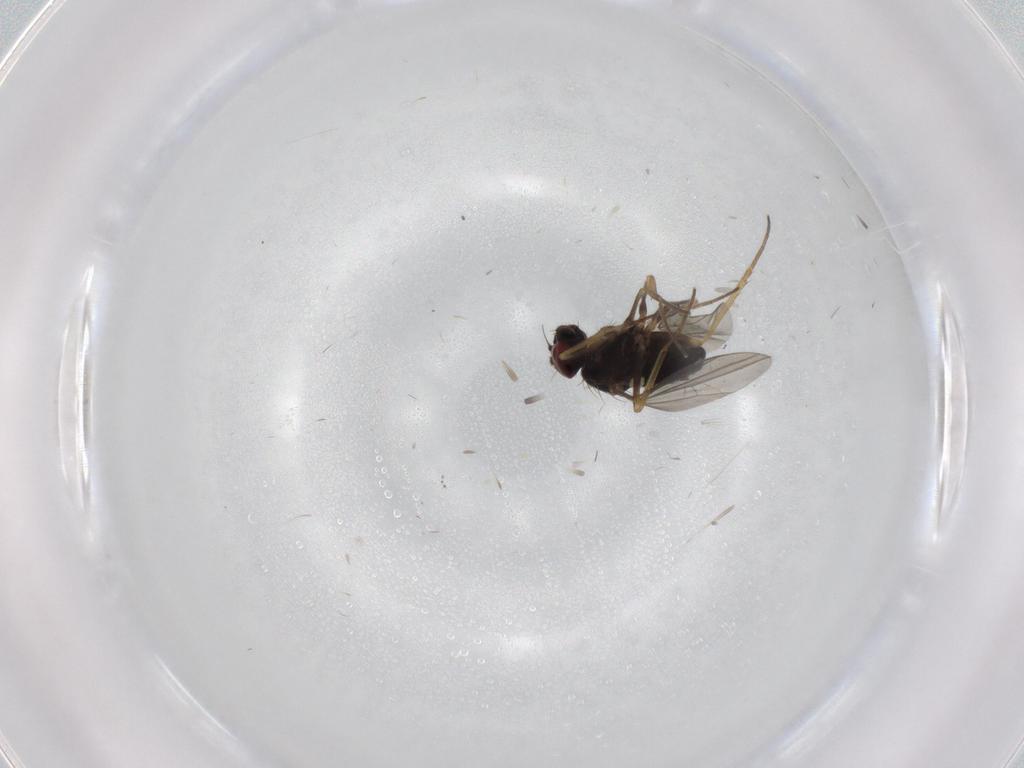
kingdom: Animalia
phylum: Arthropoda
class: Insecta
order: Diptera
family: Dolichopodidae
